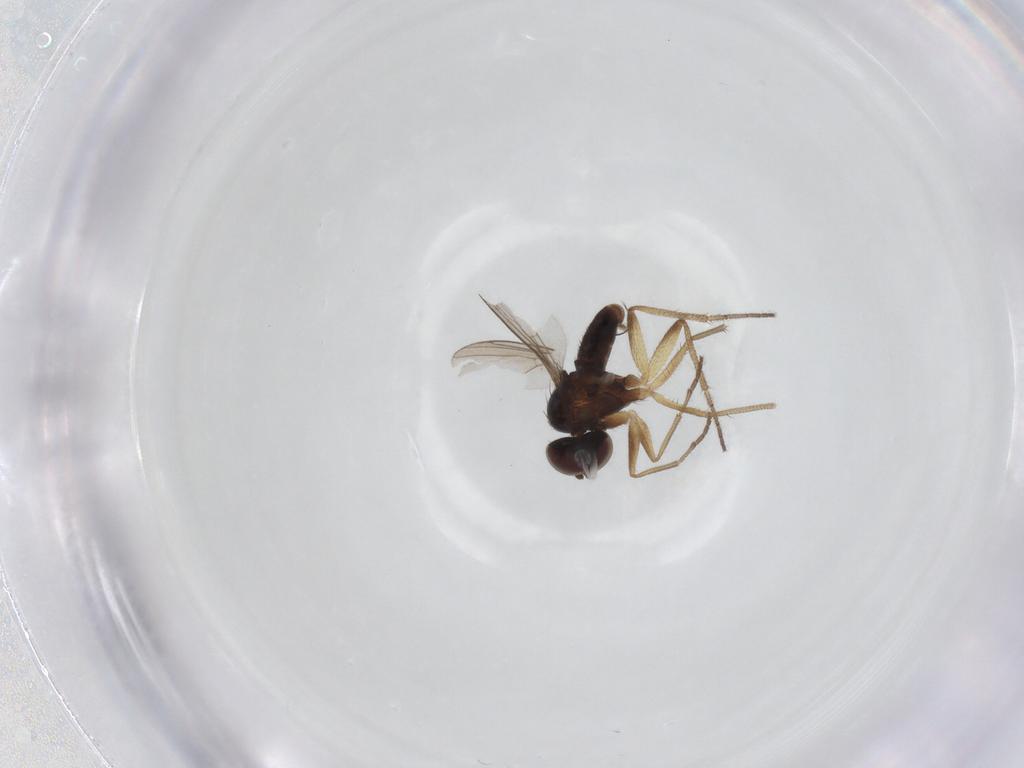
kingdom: Animalia
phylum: Arthropoda
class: Insecta
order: Diptera
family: Dolichopodidae
